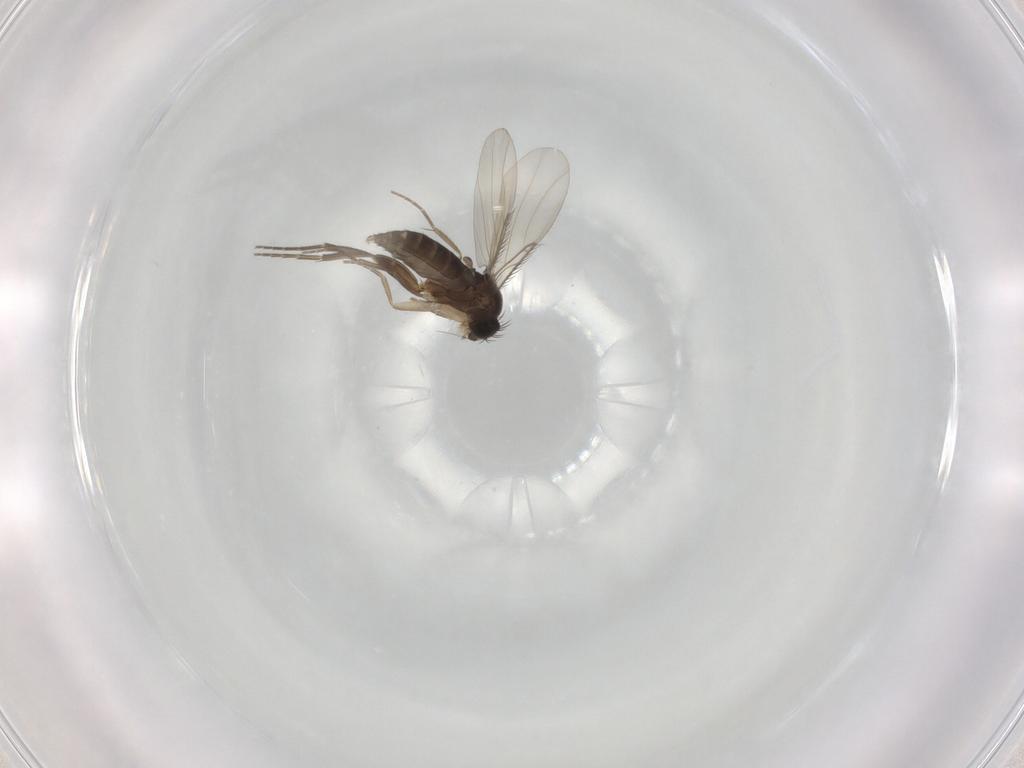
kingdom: Animalia
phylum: Arthropoda
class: Insecta
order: Diptera
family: Phoridae
